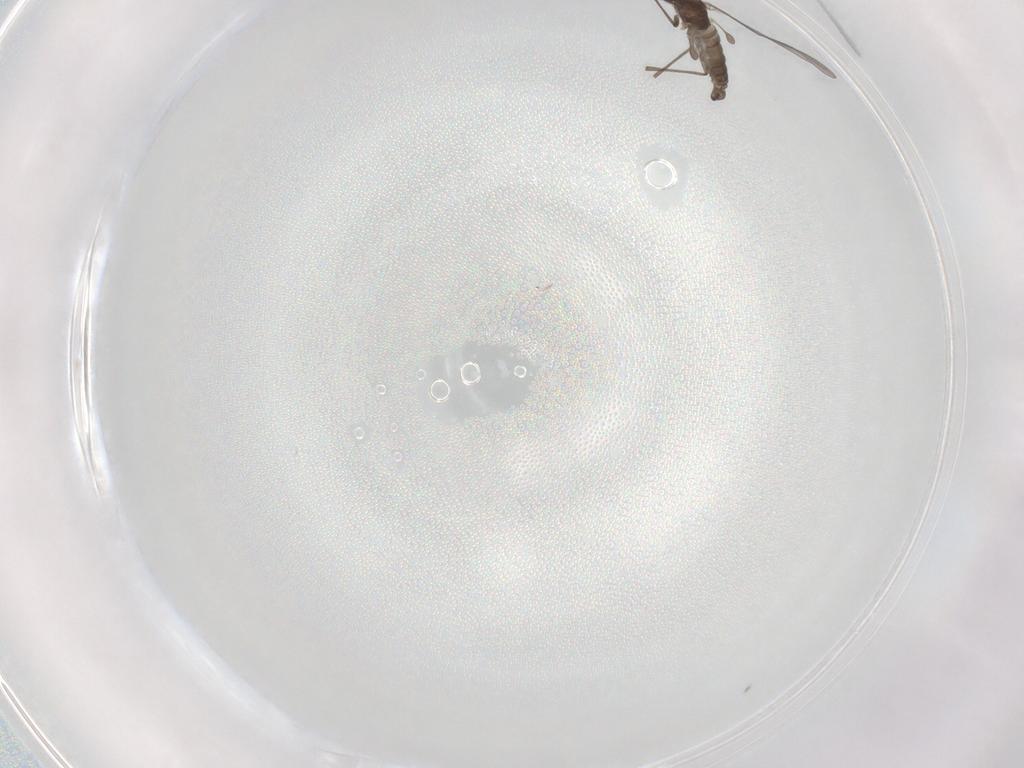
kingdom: Animalia
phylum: Arthropoda
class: Insecta
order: Diptera
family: Sciaridae
